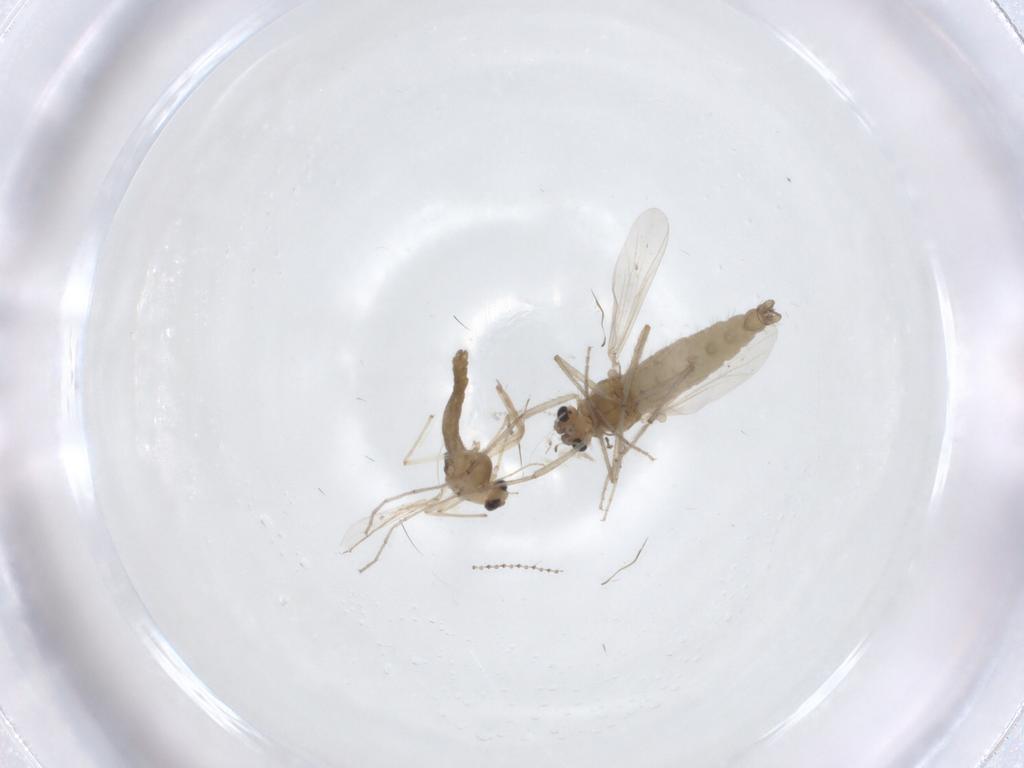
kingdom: Animalia
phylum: Arthropoda
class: Insecta
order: Diptera
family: Chironomidae
